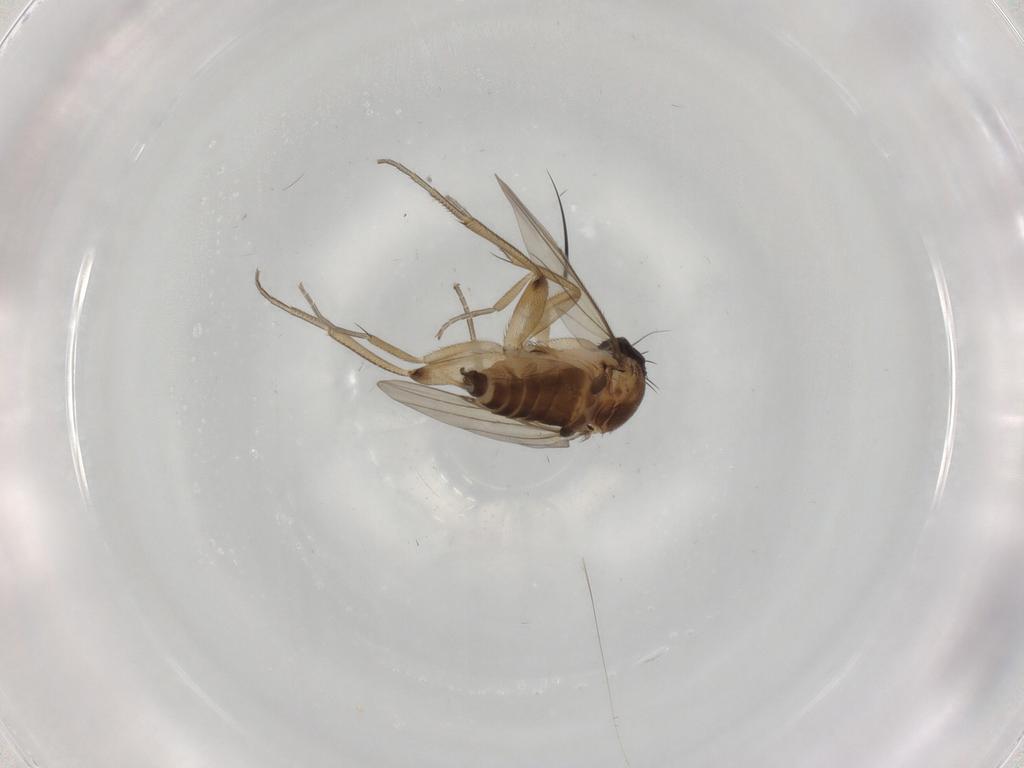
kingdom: Animalia
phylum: Arthropoda
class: Insecta
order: Diptera
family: Phoridae
